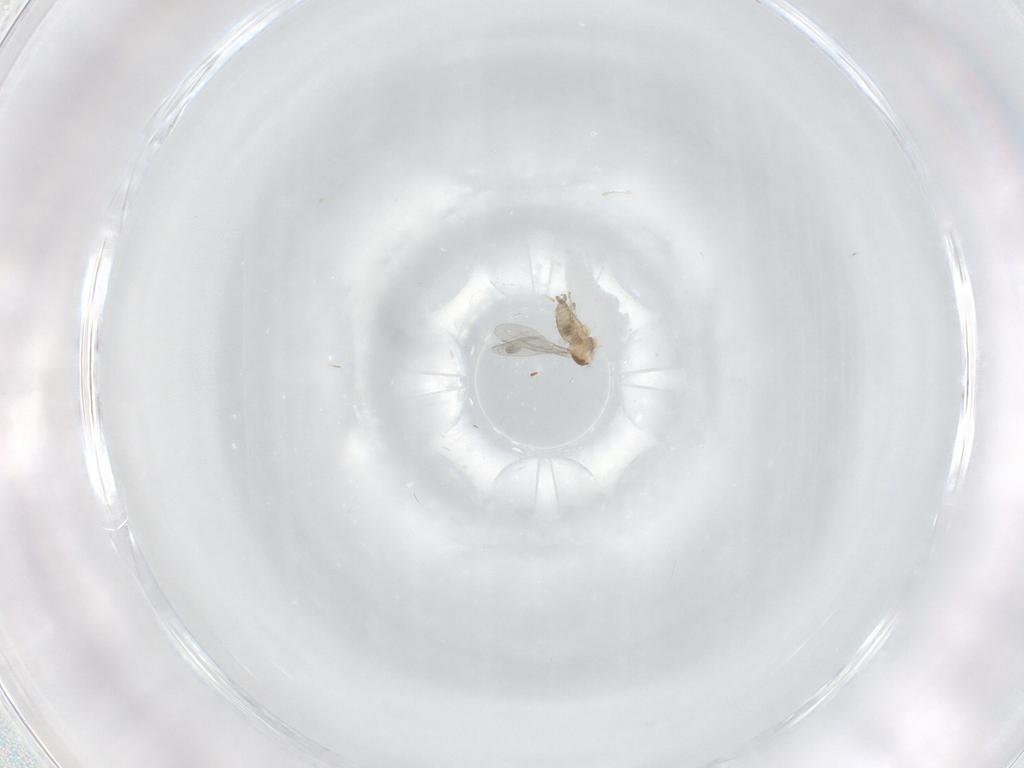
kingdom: Animalia
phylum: Arthropoda
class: Insecta
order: Diptera
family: Cecidomyiidae
